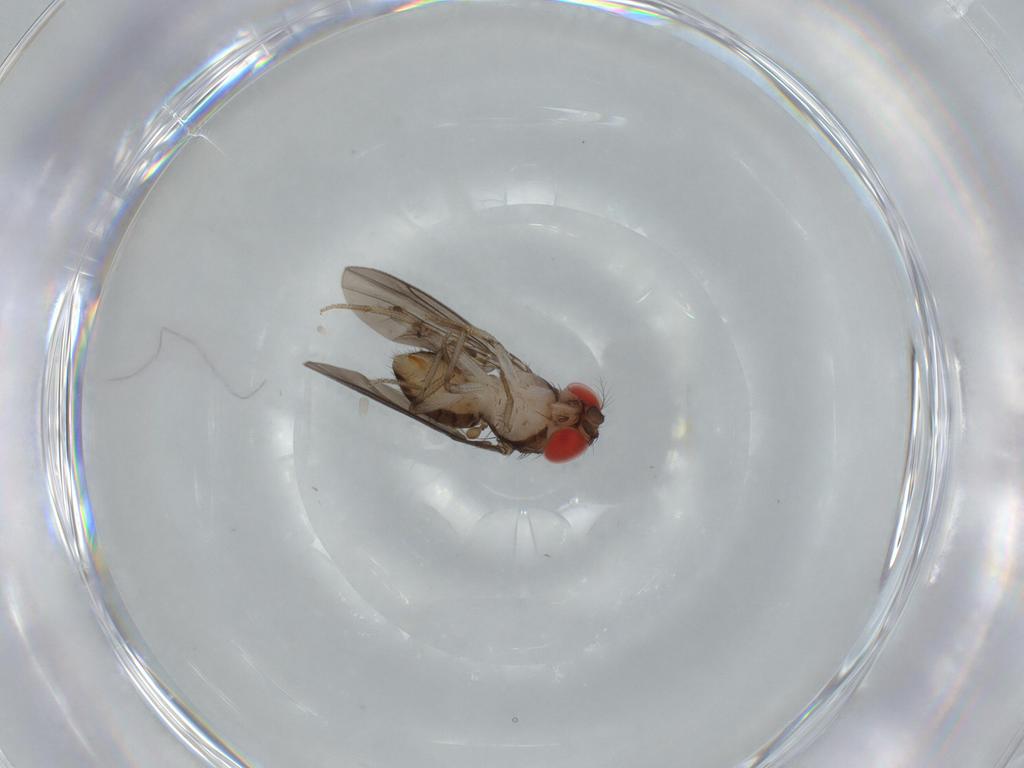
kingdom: Animalia
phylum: Arthropoda
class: Insecta
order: Diptera
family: Drosophilidae
